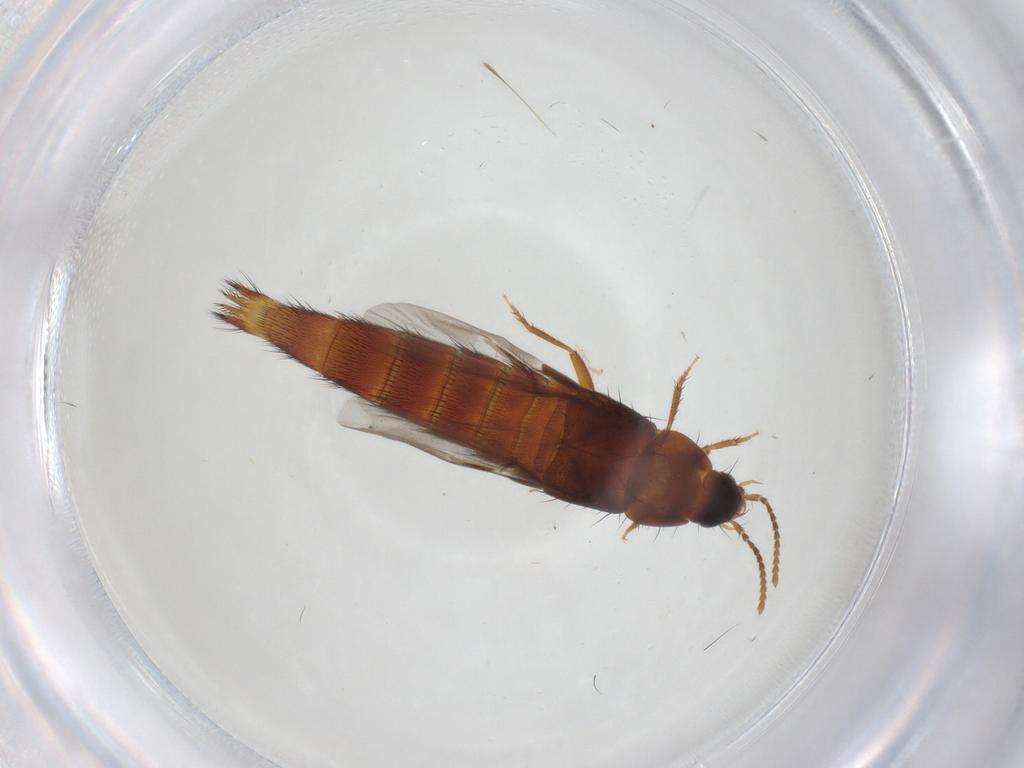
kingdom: Animalia
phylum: Arthropoda
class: Insecta
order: Coleoptera
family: Staphylinidae
